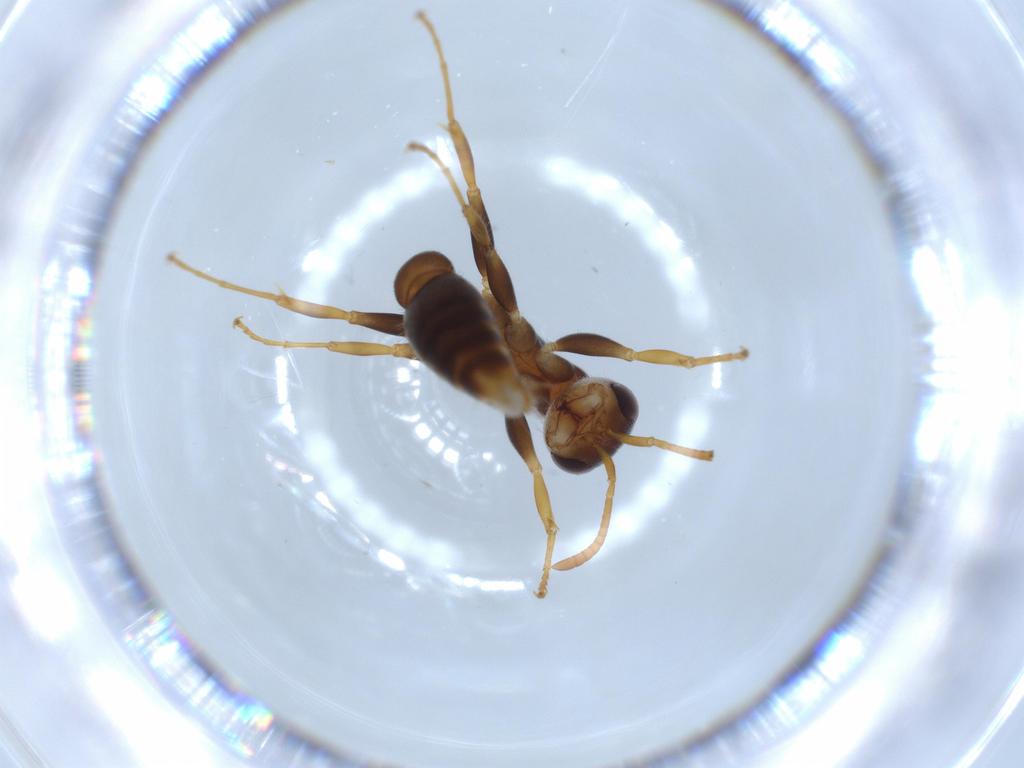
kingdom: Animalia
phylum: Arthropoda
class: Insecta
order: Hymenoptera
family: Formicidae
